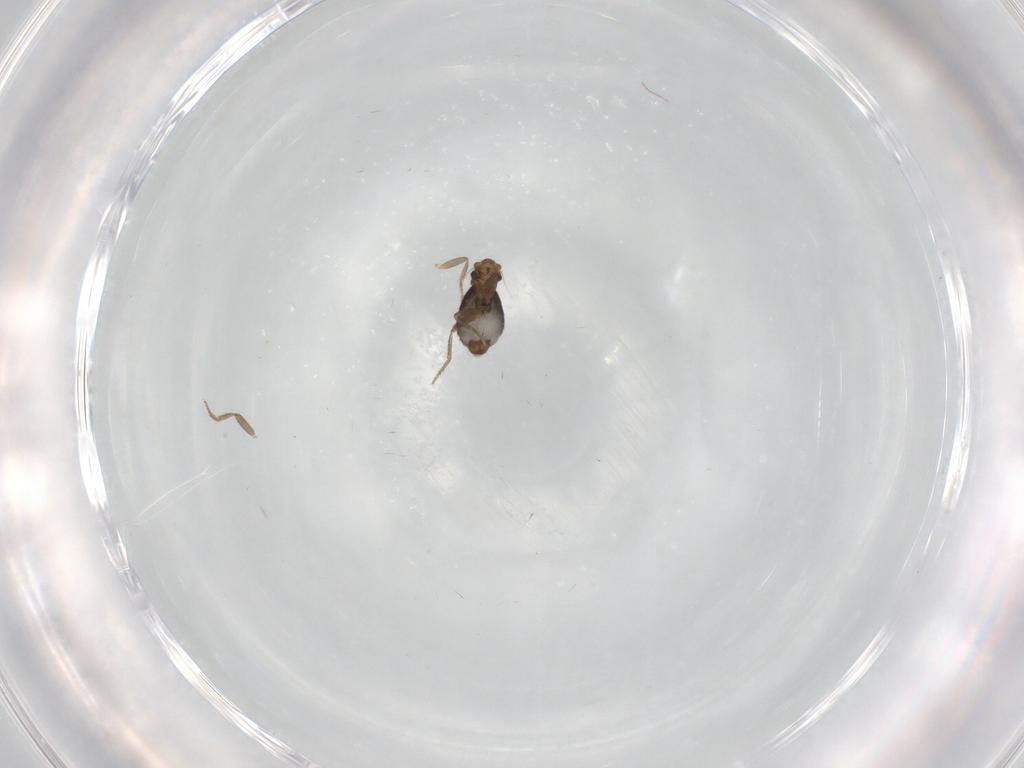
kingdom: Animalia
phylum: Arthropoda
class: Insecta
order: Diptera
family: Phoridae
